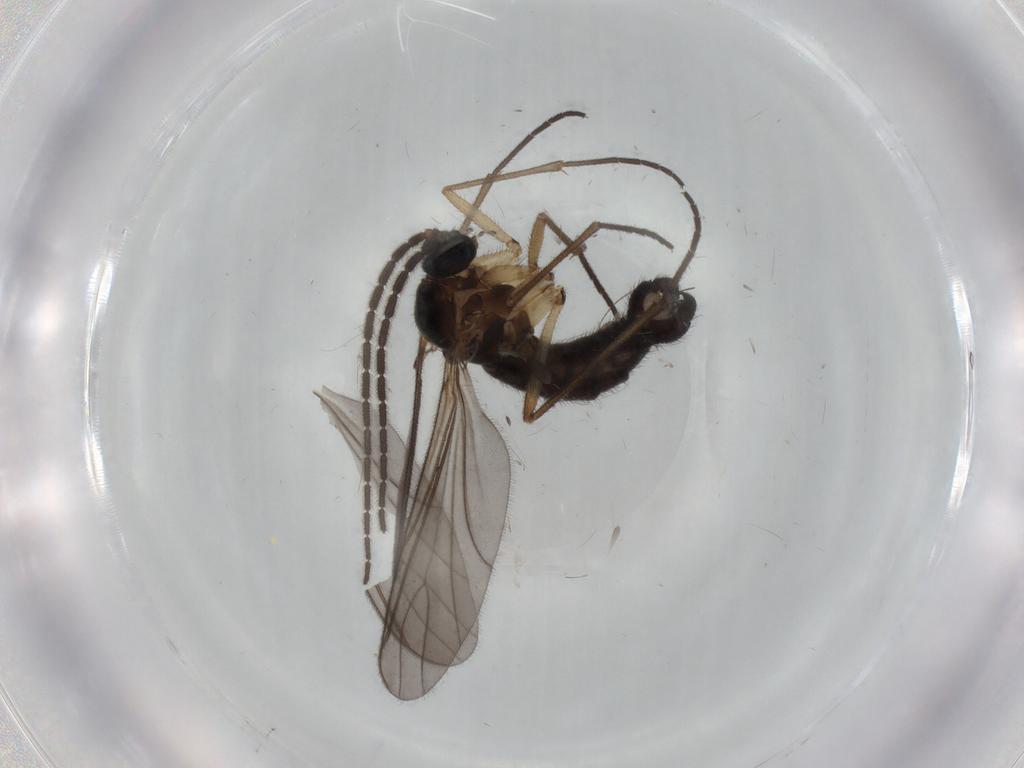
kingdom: Animalia
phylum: Arthropoda
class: Insecta
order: Diptera
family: Sciaridae
